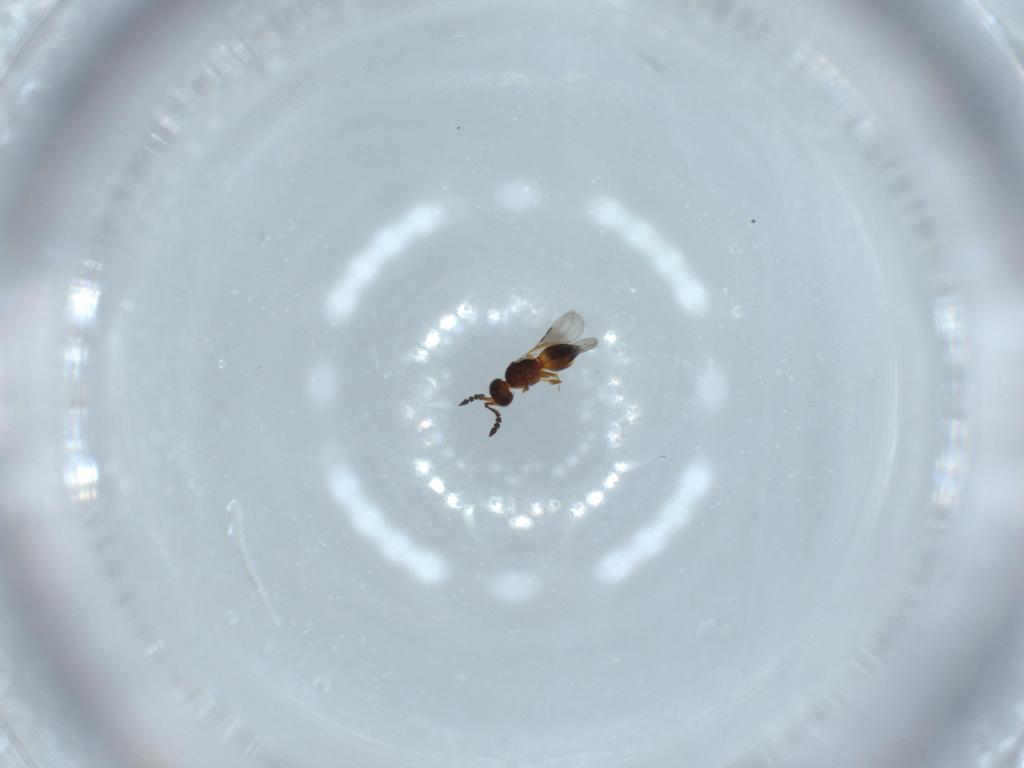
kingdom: Animalia
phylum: Arthropoda
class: Insecta
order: Hymenoptera
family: Ceraphronidae
